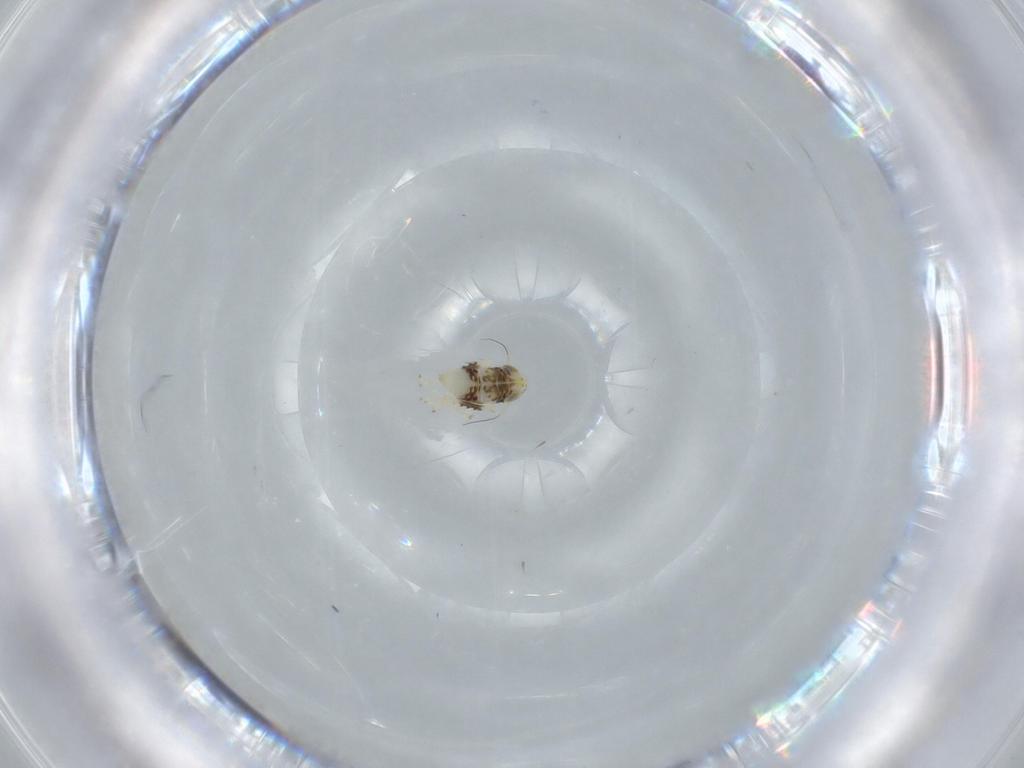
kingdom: Animalia
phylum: Arthropoda
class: Insecta
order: Hemiptera
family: Cicadellidae
